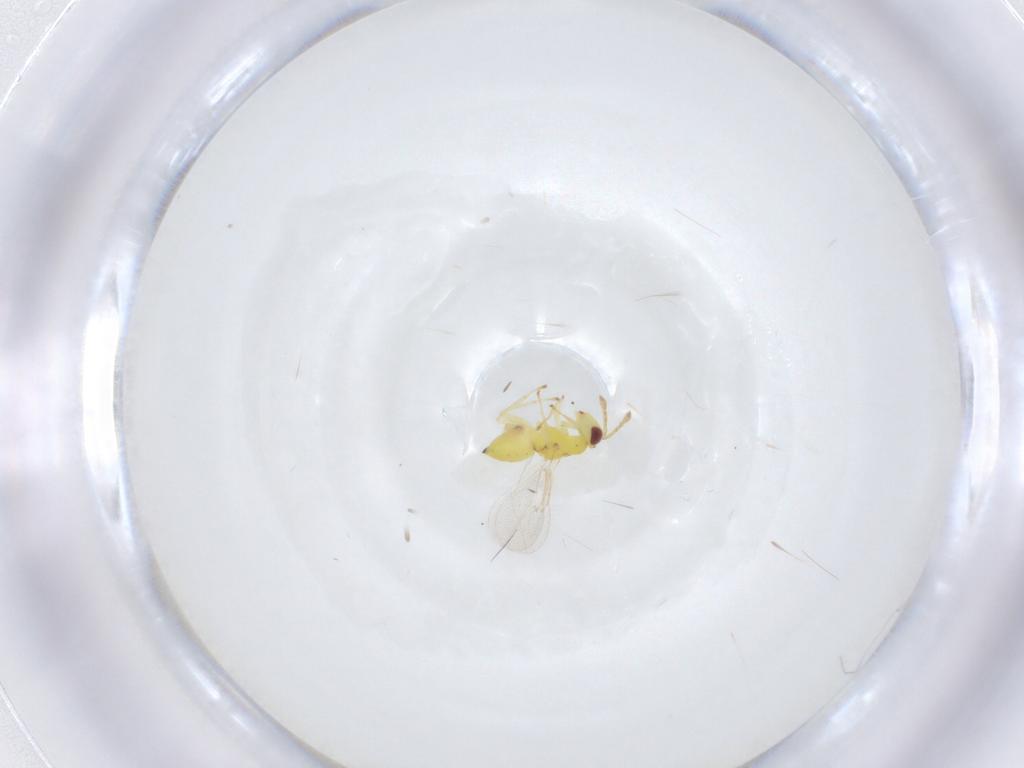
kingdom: Animalia
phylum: Arthropoda
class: Insecta
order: Hymenoptera
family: Eulophidae
